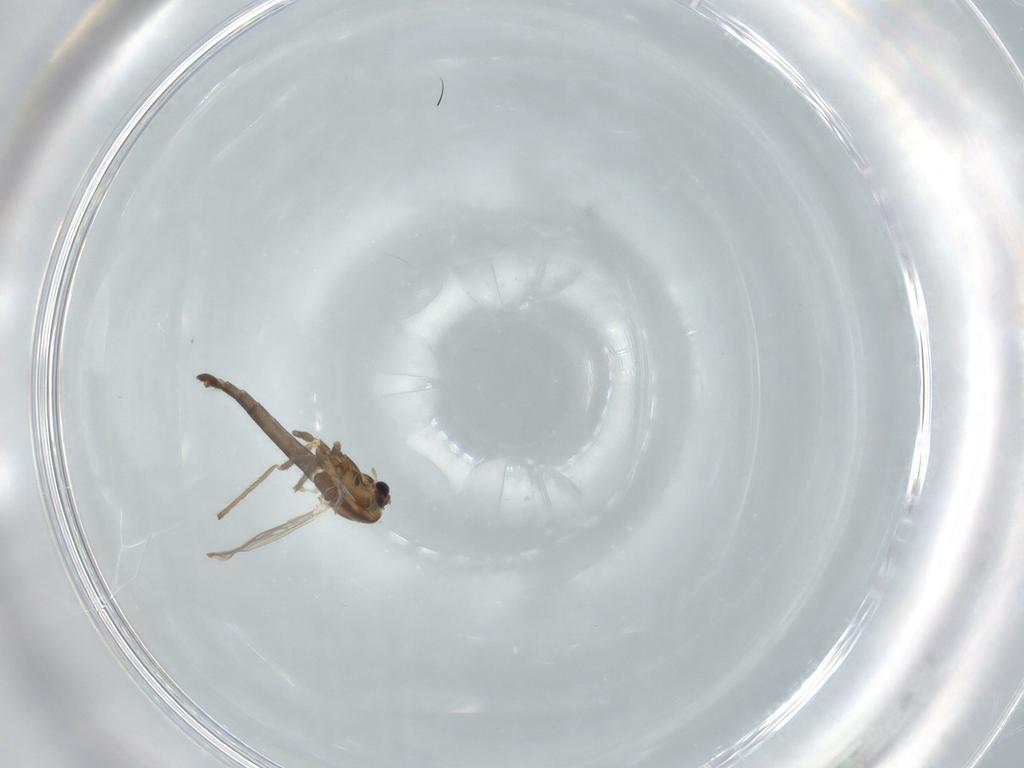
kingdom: Animalia
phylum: Arthropoda
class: Insecta
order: Diptera
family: Chironomidae
